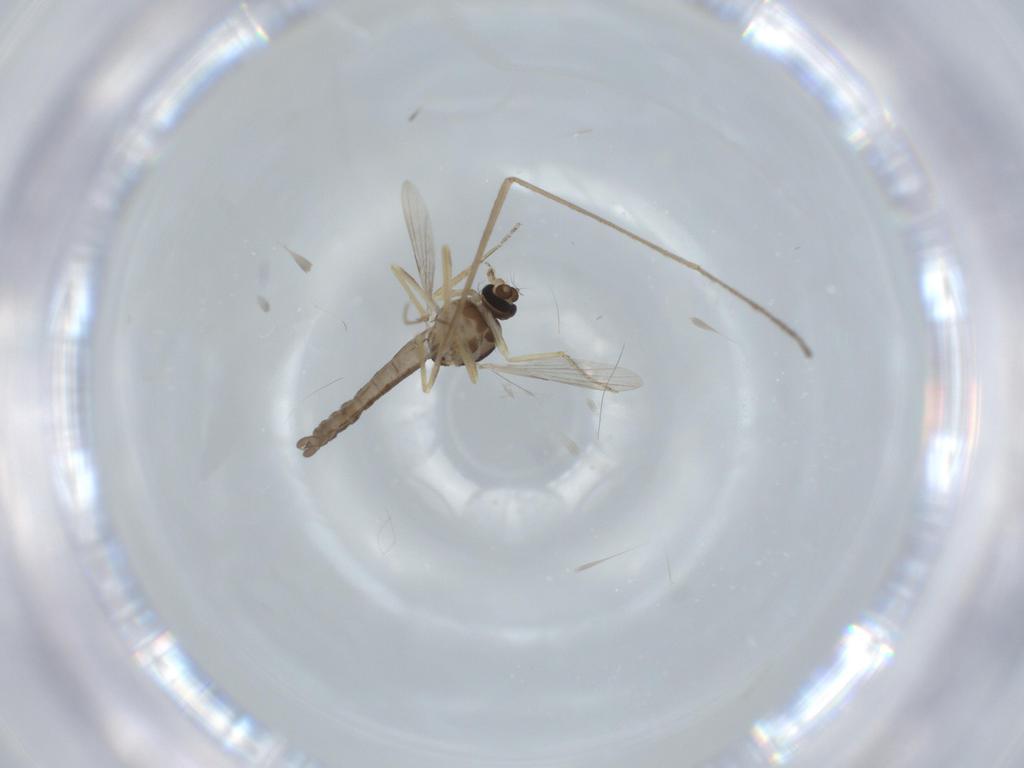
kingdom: Animalia
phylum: Arthropoda
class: Insecta
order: Diptera
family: Ceratopogonidae
